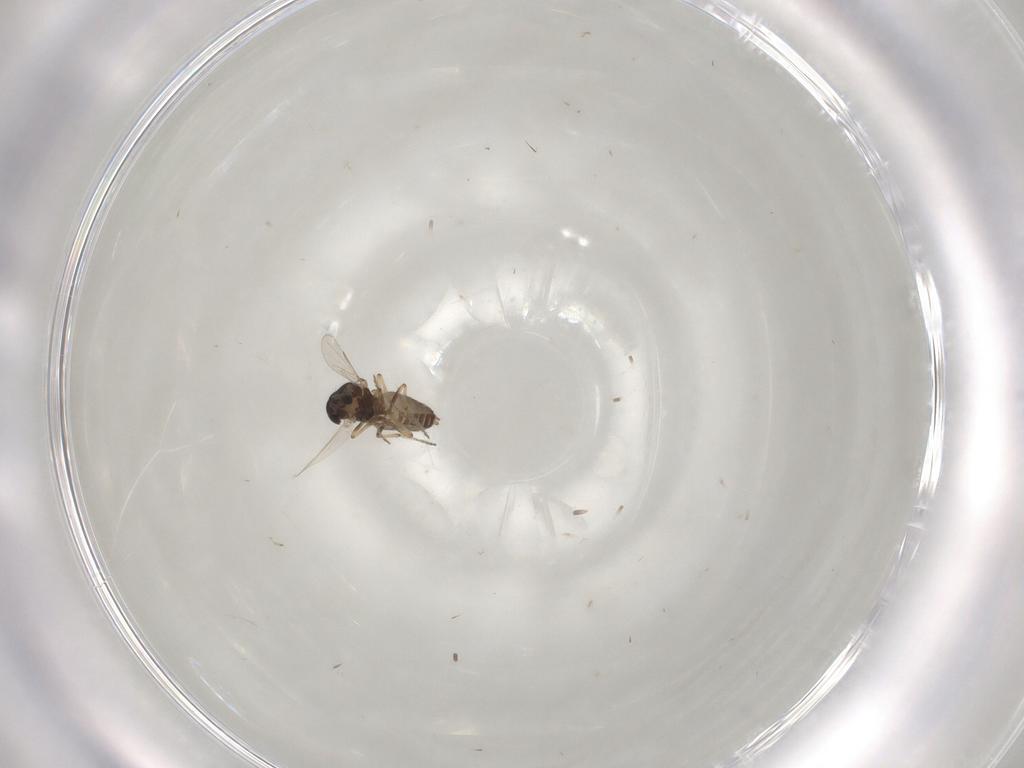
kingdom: Animalia
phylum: Arthropoda
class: Insecta
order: Diptera
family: Ceratopogonidae
